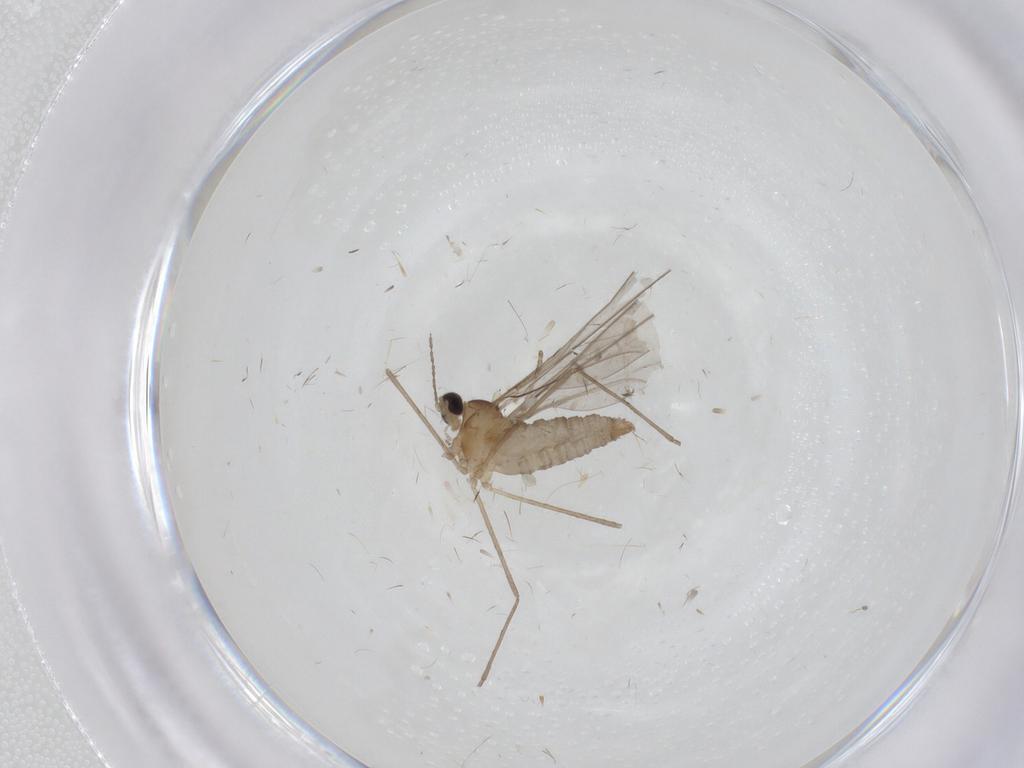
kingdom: Animalia
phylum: Arthropoda
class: Insecta
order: Diptera
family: Cecidomyiidae
